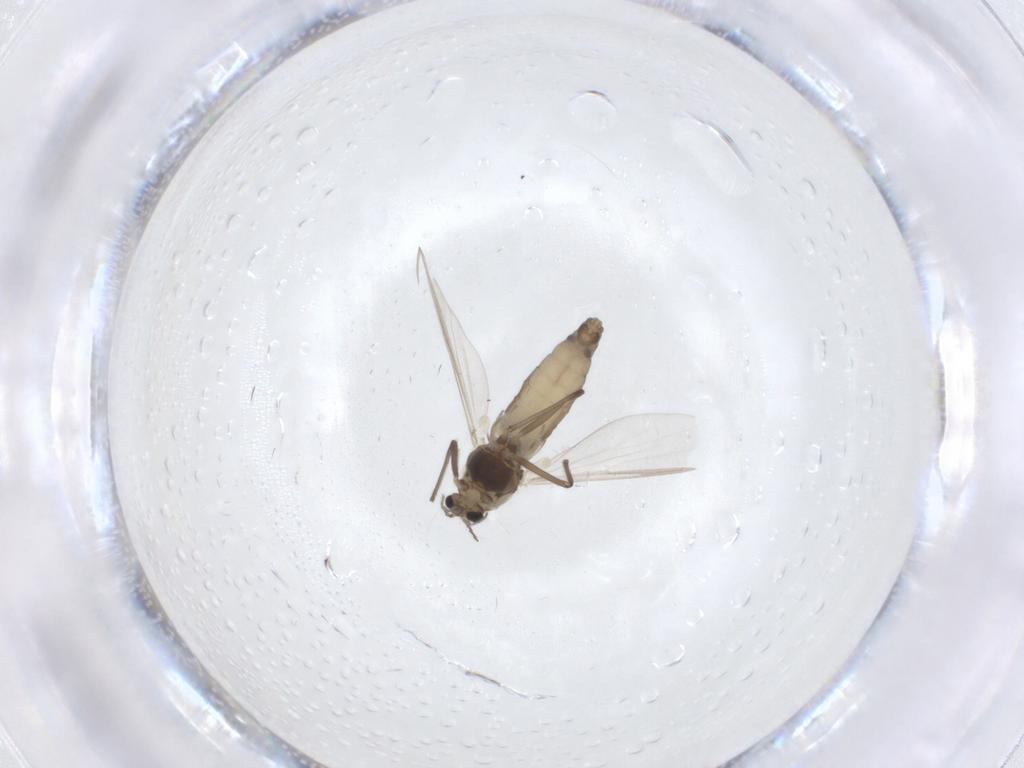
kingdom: Animalia
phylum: Arthropoda
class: Insecta
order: Diptera
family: Chironomidae
